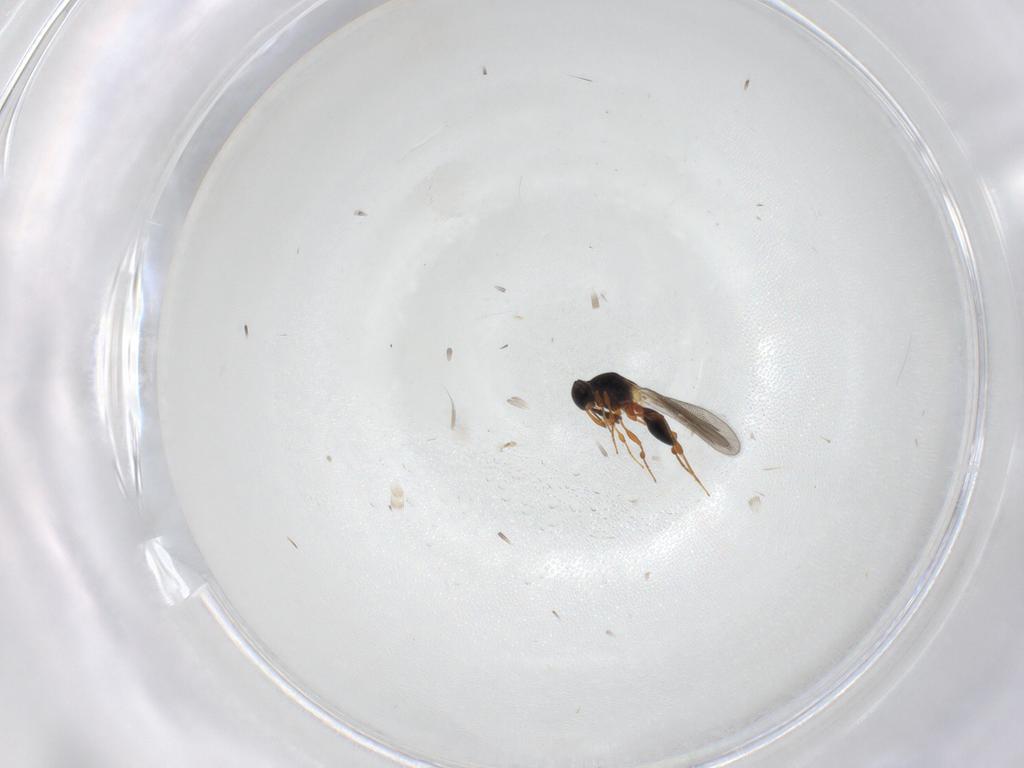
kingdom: Animalia
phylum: Arthropoda
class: Insecta
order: Hymenoptera
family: Platygastridae
